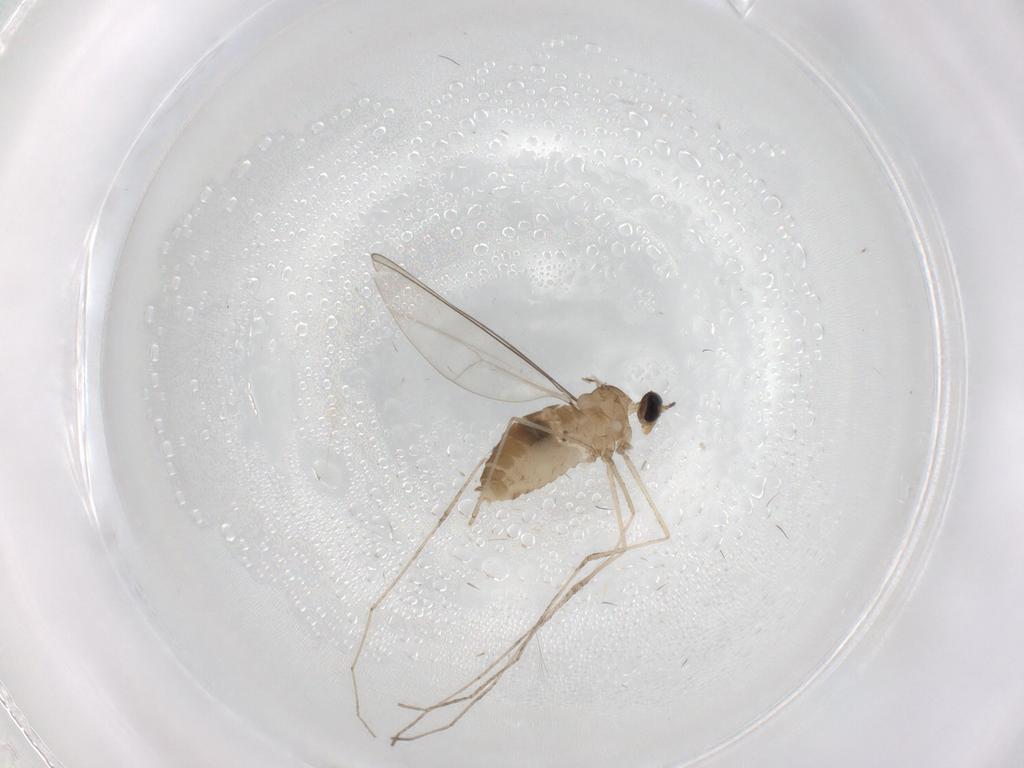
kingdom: Animalia
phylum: Arthropoda
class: Insecta
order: Diptera
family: Cecidomyiidae
